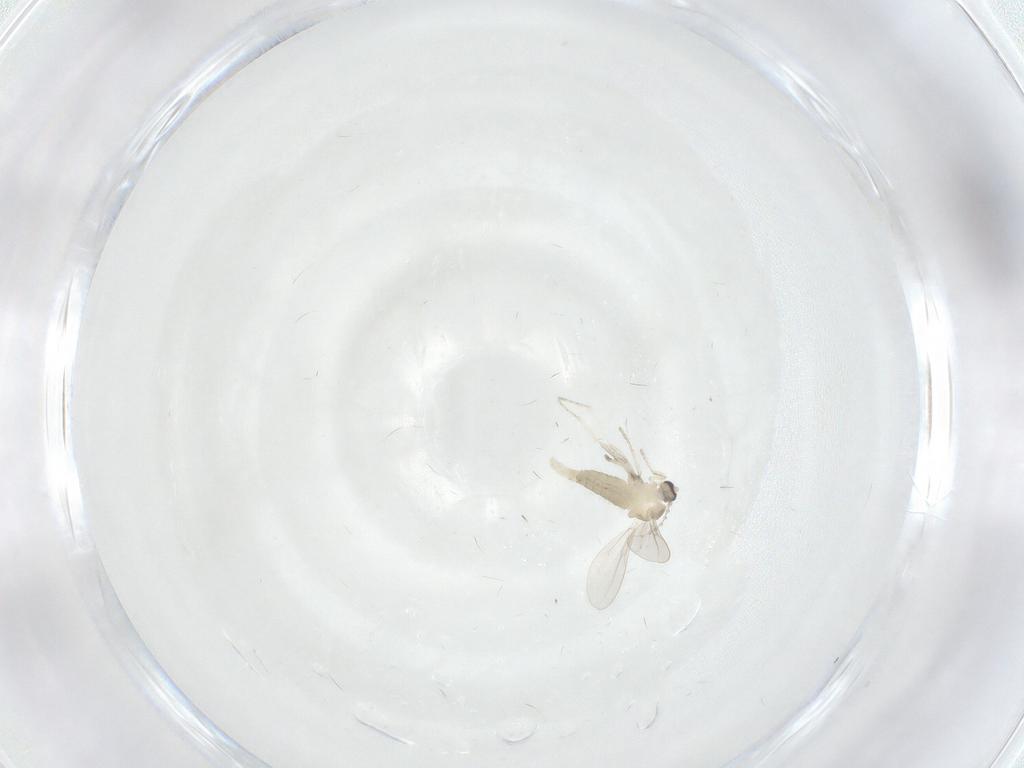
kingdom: Animalia
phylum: Arthropoda
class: Insecta
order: Diptera
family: Cecidomyiidae
